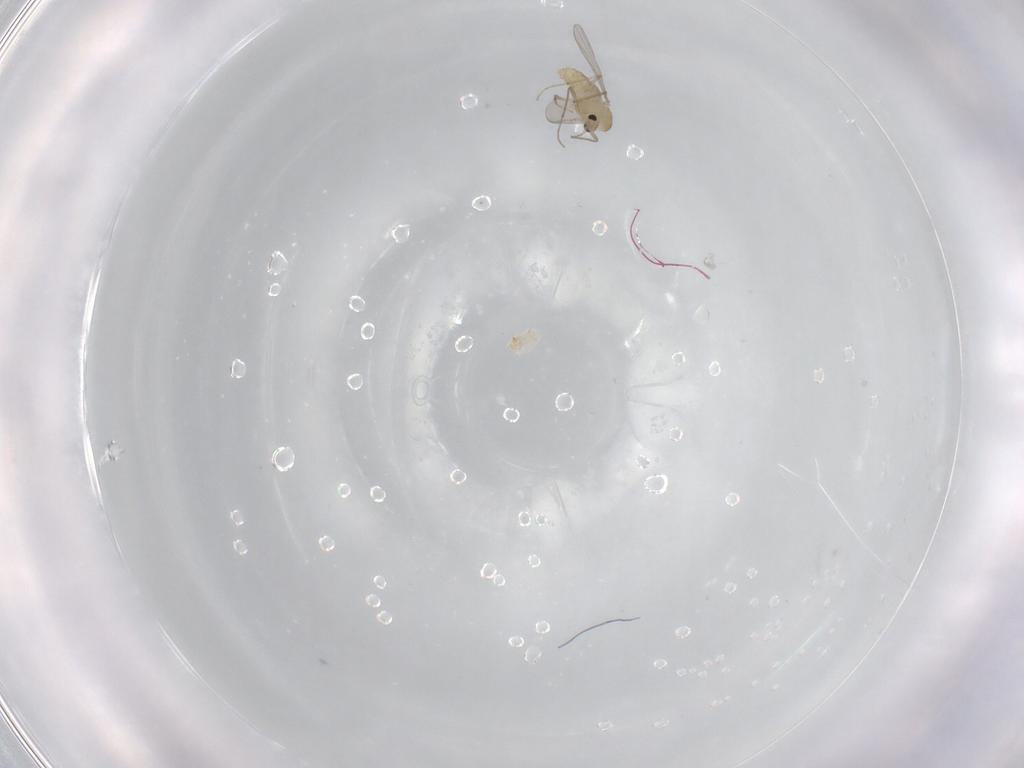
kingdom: Animalia
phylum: Arthropoda
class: Insecta
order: Diptera
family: Chironomidae
